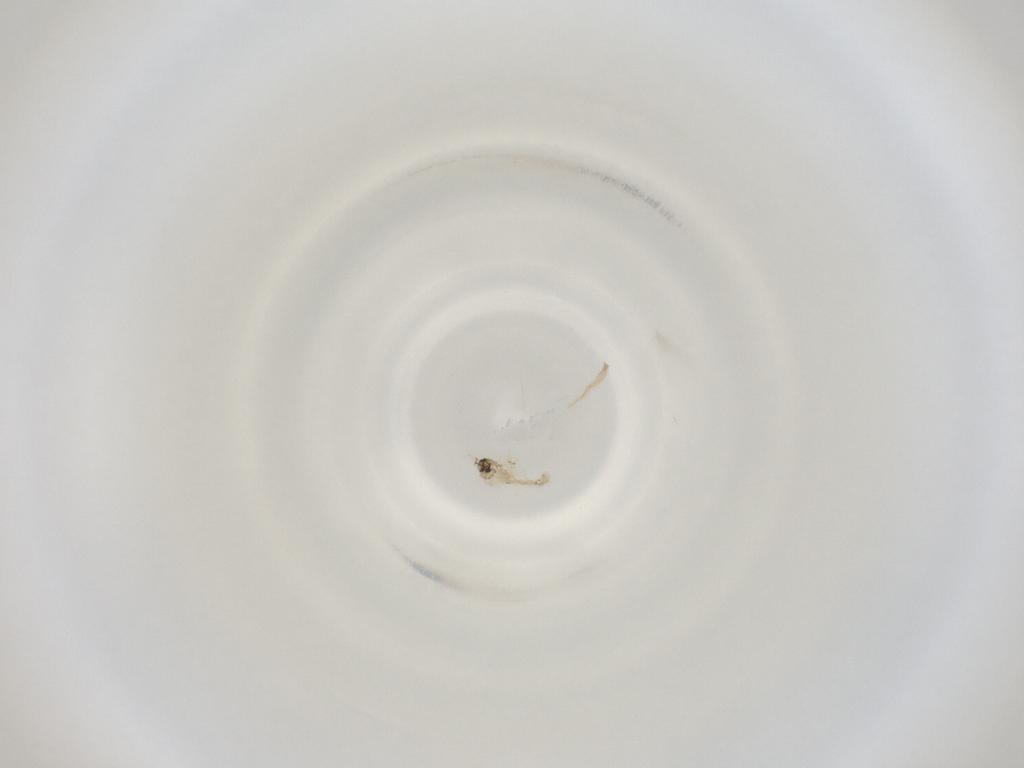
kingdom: Animalia
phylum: Arthropoda
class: Insecta
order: Diptera
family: Cecidomyiidae
